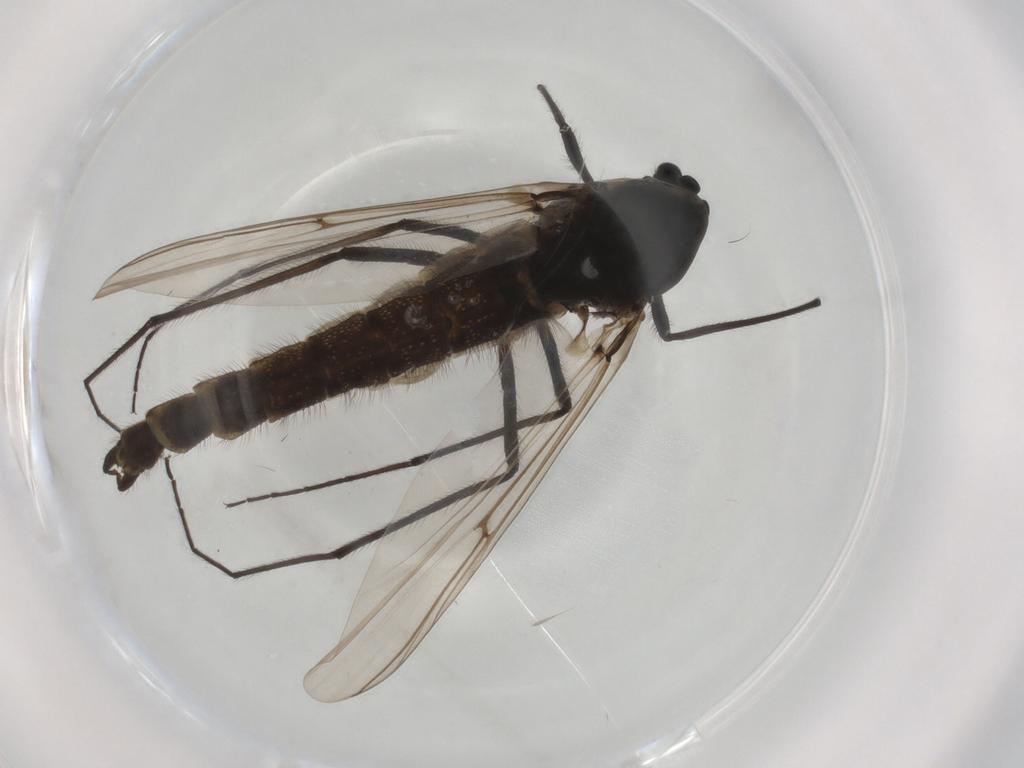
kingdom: Animalia
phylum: Arthropoda
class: Insecta
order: Diptera
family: Chironomidae
